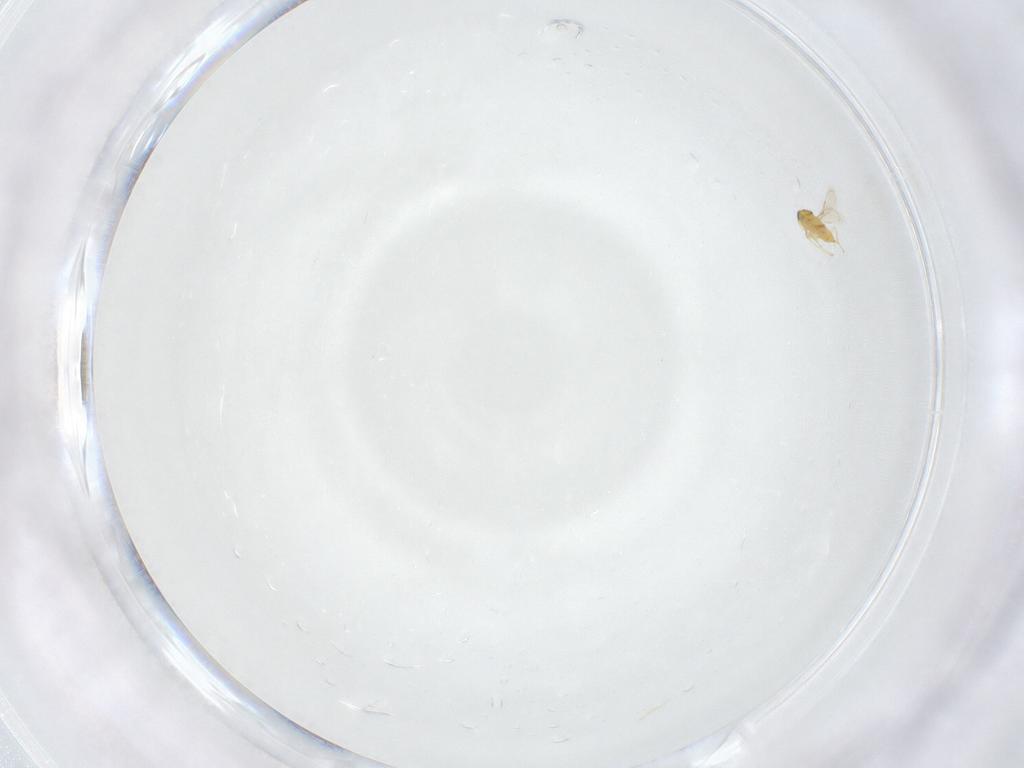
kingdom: Animalia
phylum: Arthropoda
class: Insecta
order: Hymenoptera
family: Aphelinidae
